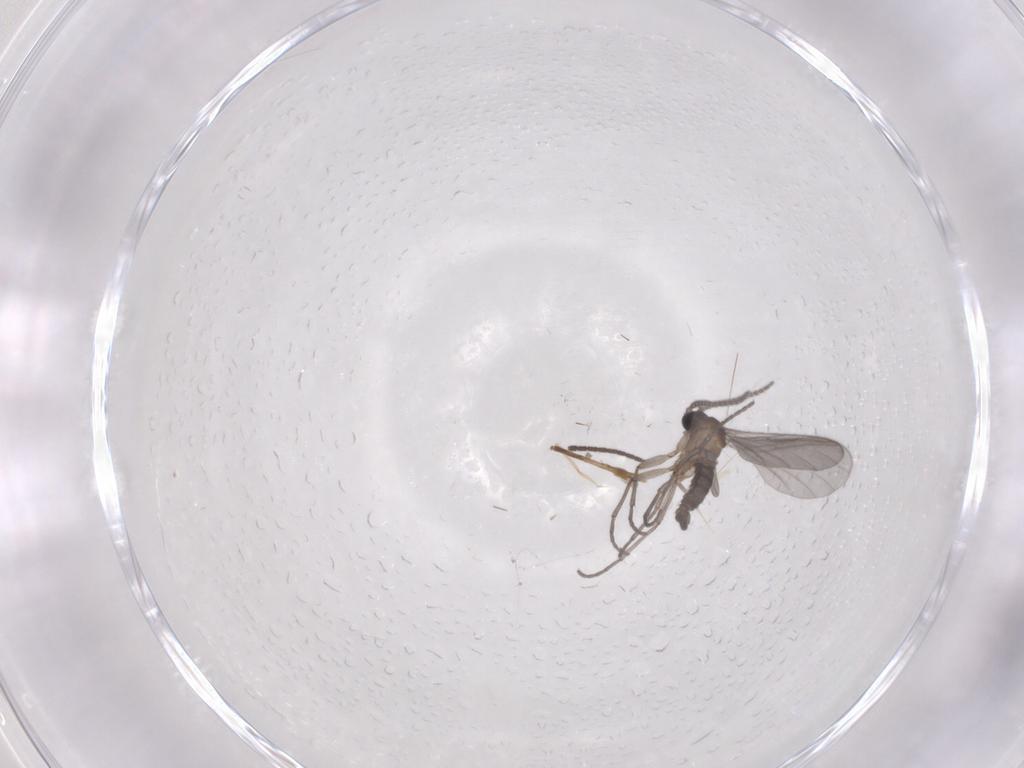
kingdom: Animalia
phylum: Arthropoda
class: Insecta
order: Diptera
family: Sciaridae
